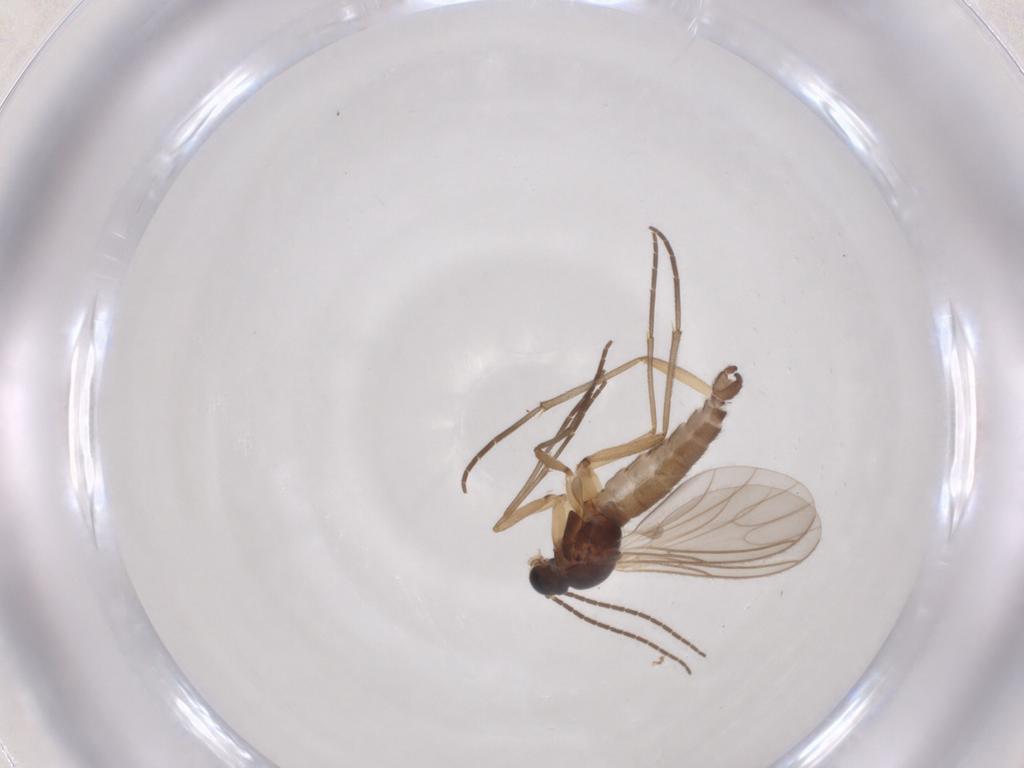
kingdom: Animalia
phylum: Arthropoda
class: Insecta
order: Diptera
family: Sciaridae
